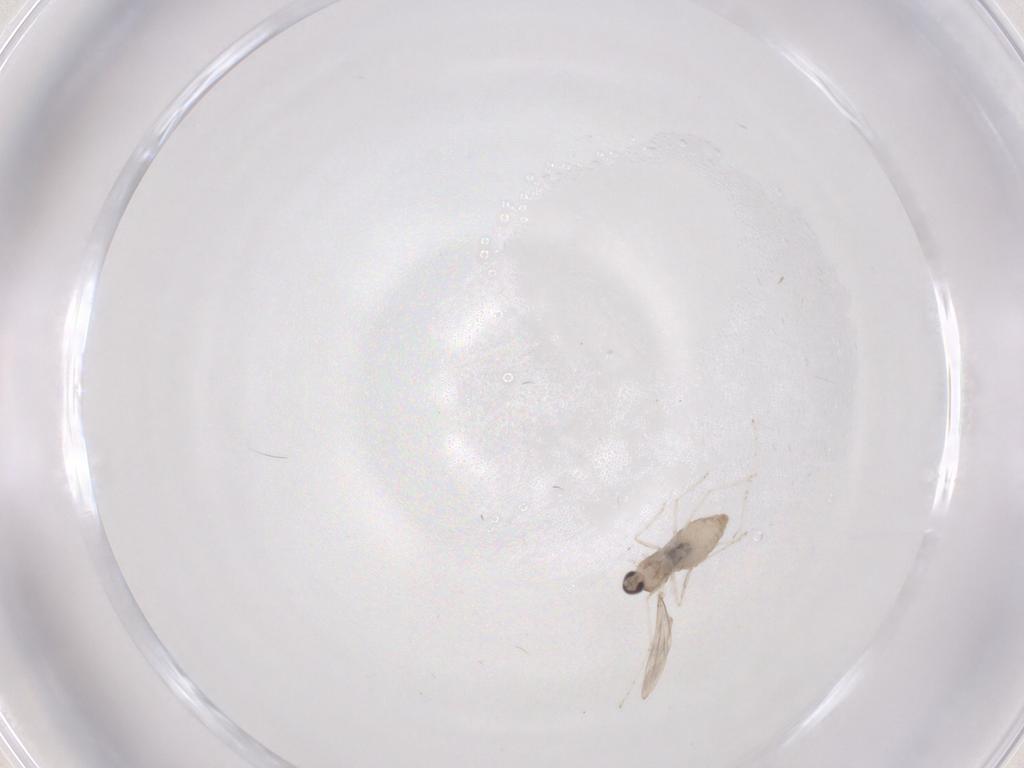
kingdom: Animalia
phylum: Arthropoda
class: Insecta
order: Diptera
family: Cecidomyiidae
